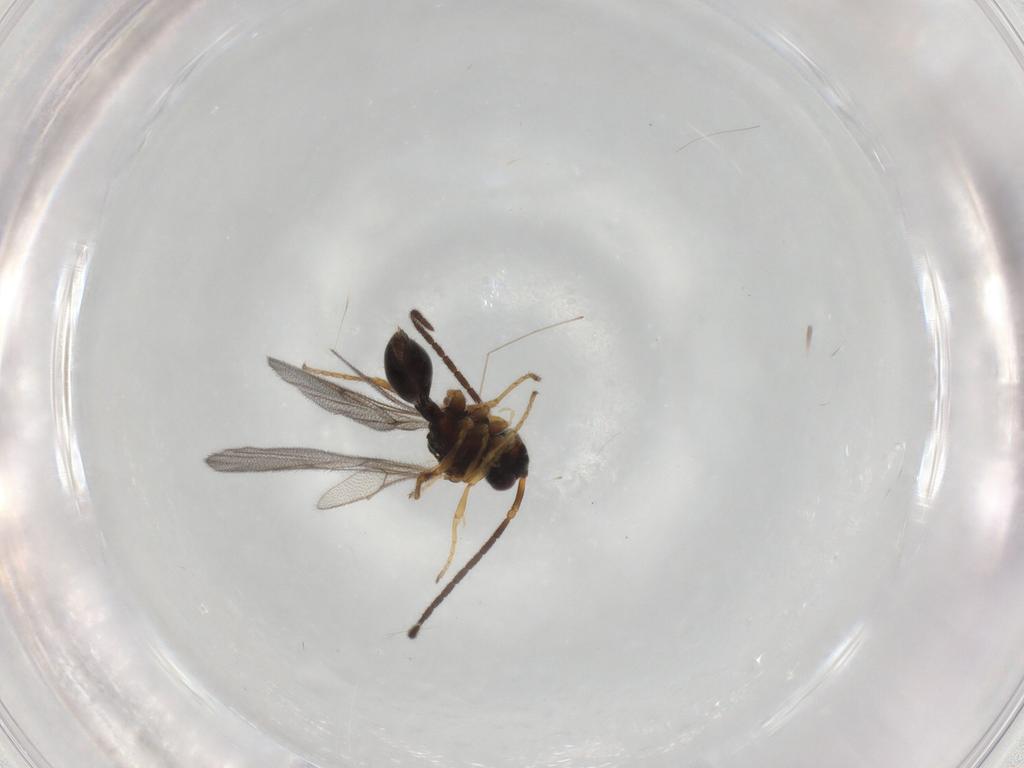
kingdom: Animalia
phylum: Arthropoda
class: Insecta
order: Hymenoptera
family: Diapriidae
